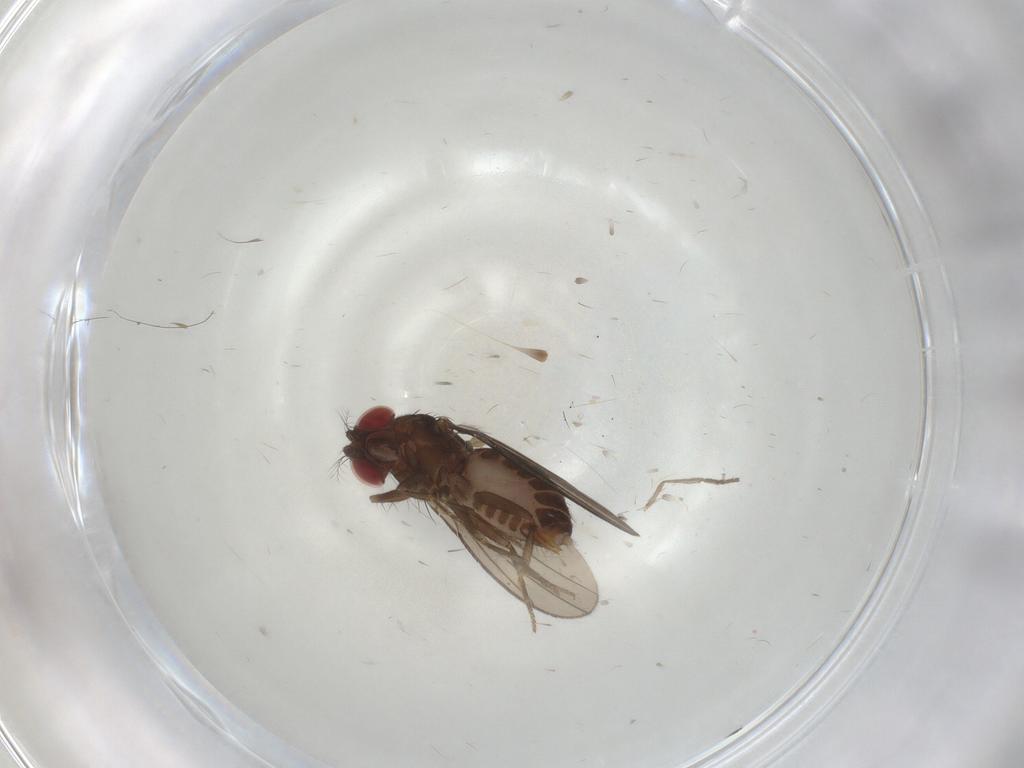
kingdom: Animalia
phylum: Arthropoda
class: Insecta
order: Diptera
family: Drosophilidae
